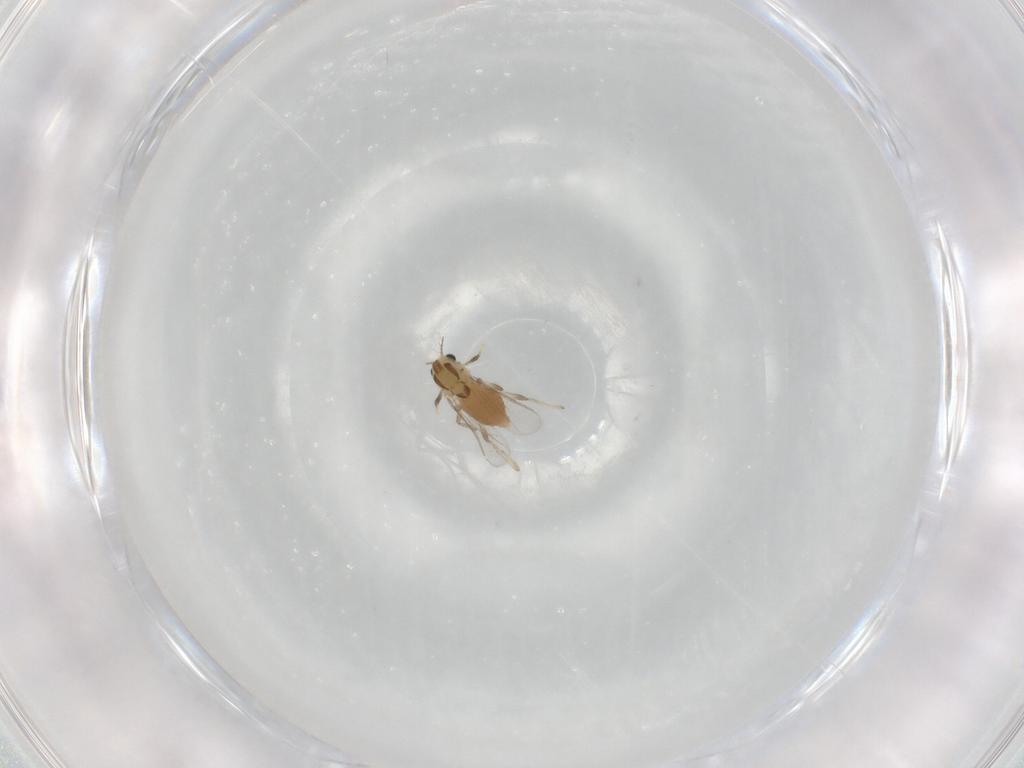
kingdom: Animalia
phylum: Arthropoda
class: Insecta
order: Diptera
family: Chironomidae
